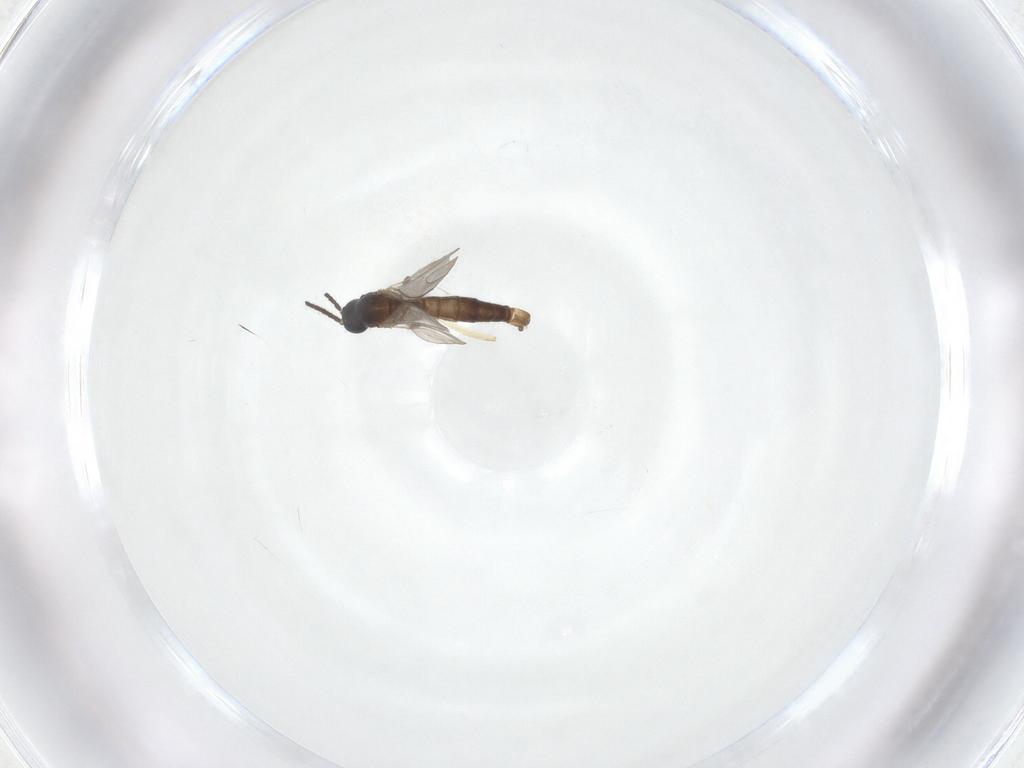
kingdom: Animalia
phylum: Arthropoda
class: Insecta
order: Diptera
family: Sciaridae
